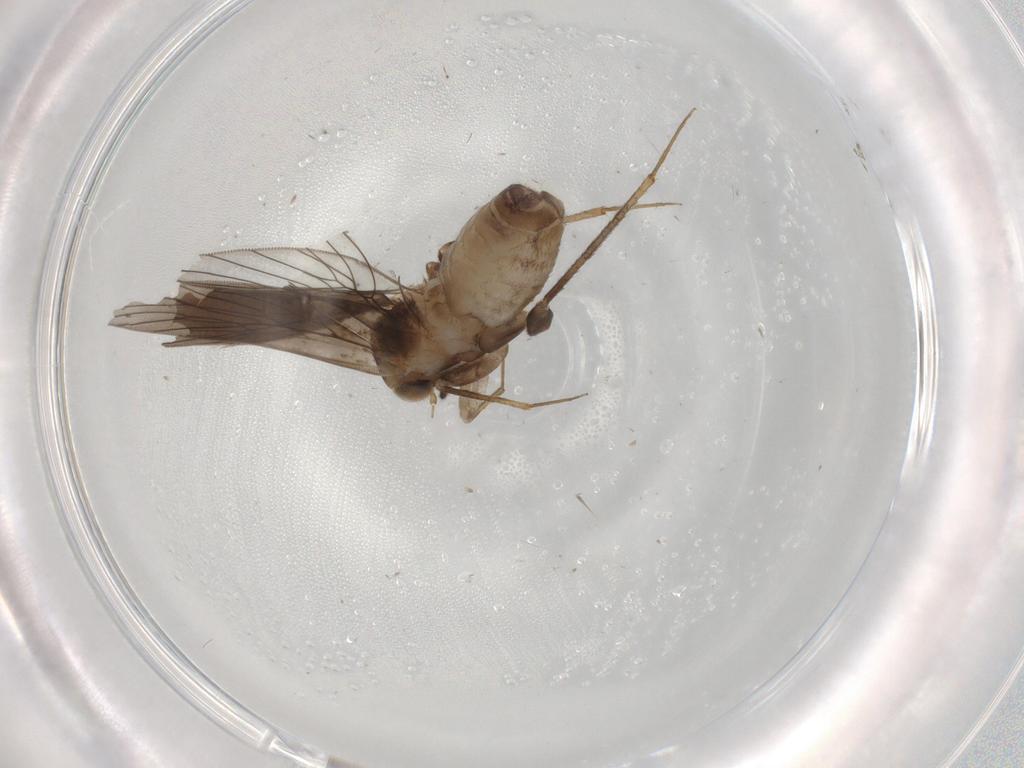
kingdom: Animalia
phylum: Arthropoda
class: Insecta
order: Psocodea
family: Lepidopsocidae
